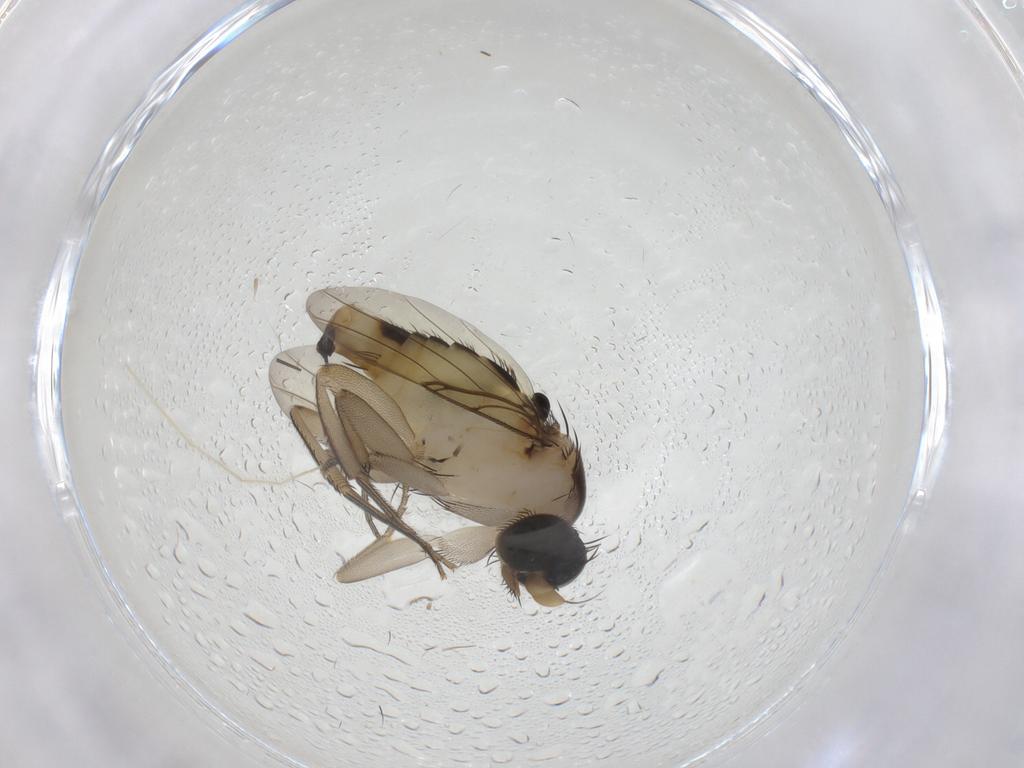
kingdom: Animalia
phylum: Arthropoda
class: Insecta
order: Diptera
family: Phoridae
